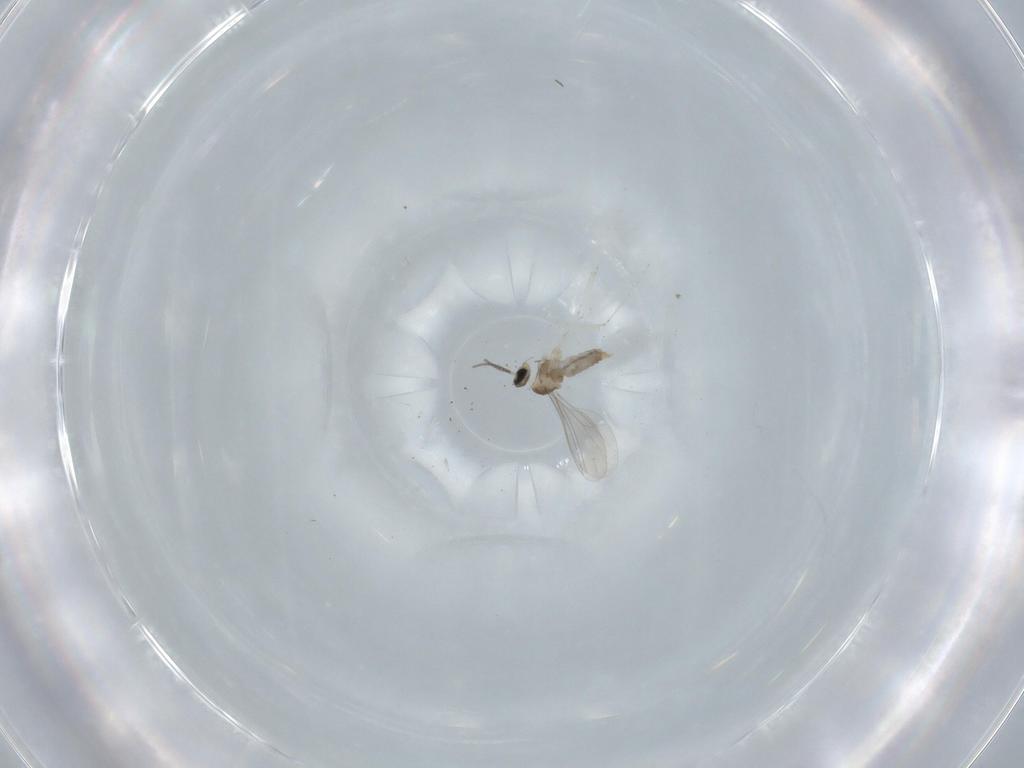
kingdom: Animalia
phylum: Arthropoda
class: Insecta
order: Diptera
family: Cecidomyiidae
